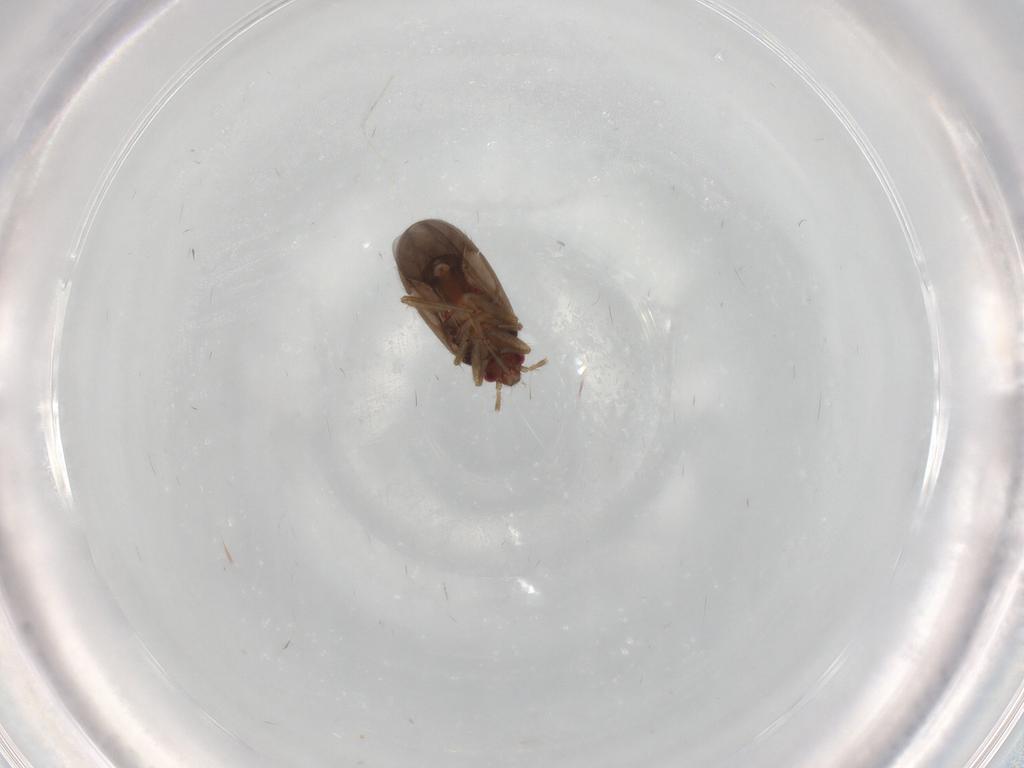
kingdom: Animalia
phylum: Arthropoda
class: Insecta
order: Hemiptera
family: Ceratocombidae
